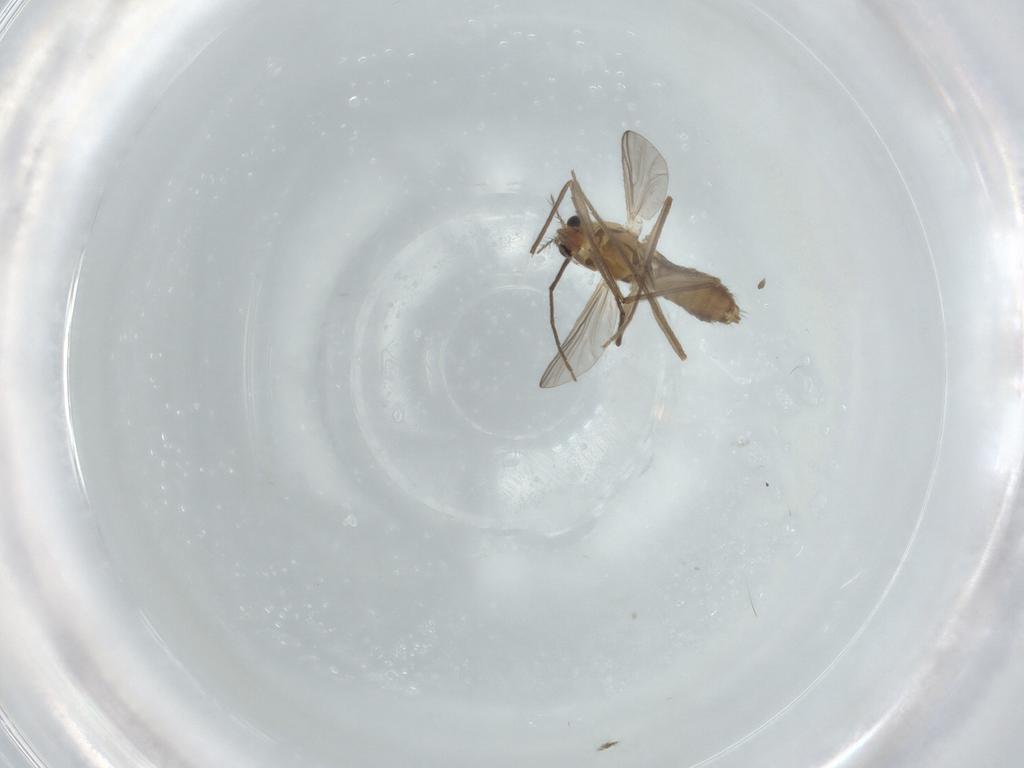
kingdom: Animalia
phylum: Arthropoda
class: Insecta
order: Diptera
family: Chironomidae
